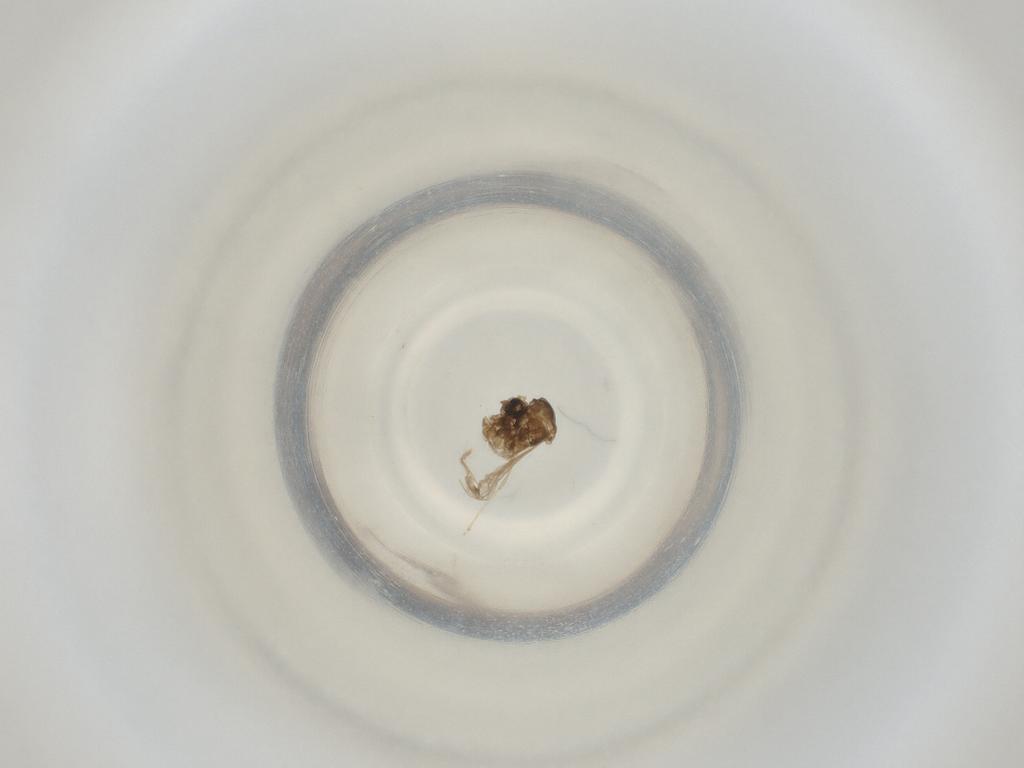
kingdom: Animalia
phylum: Arthropoda
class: Insecta
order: Diptera
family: Cecidomyiidae
